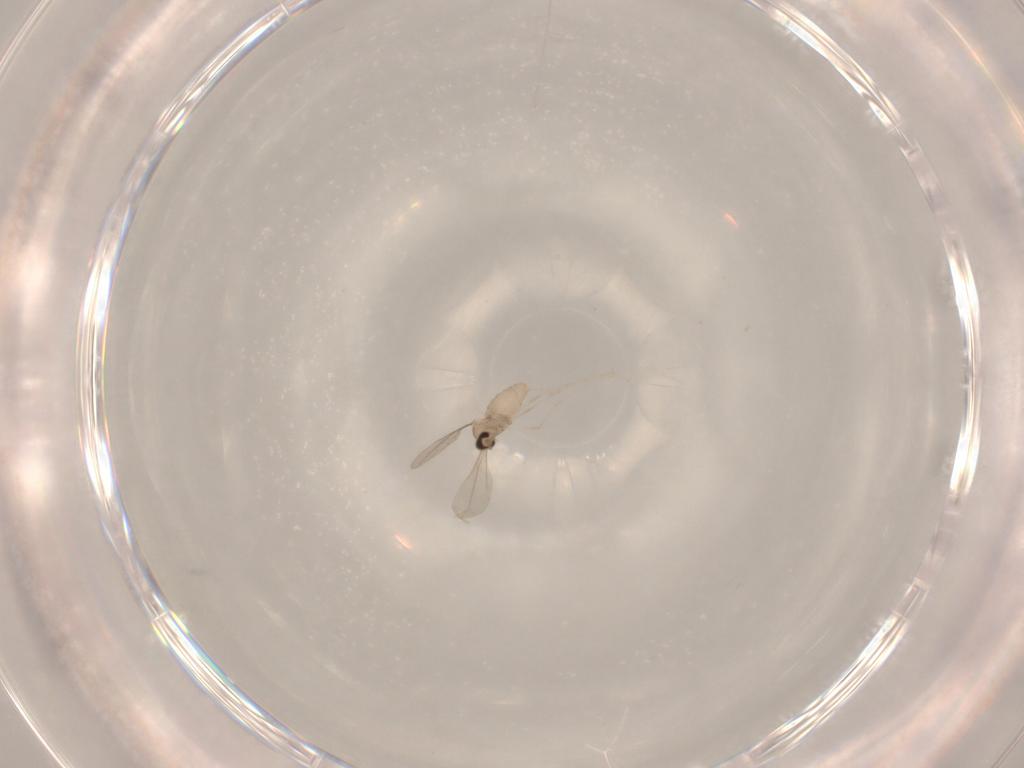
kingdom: Animalia
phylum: Arthropoda
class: Insecta
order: Diptera
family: Cecidomyiidae
